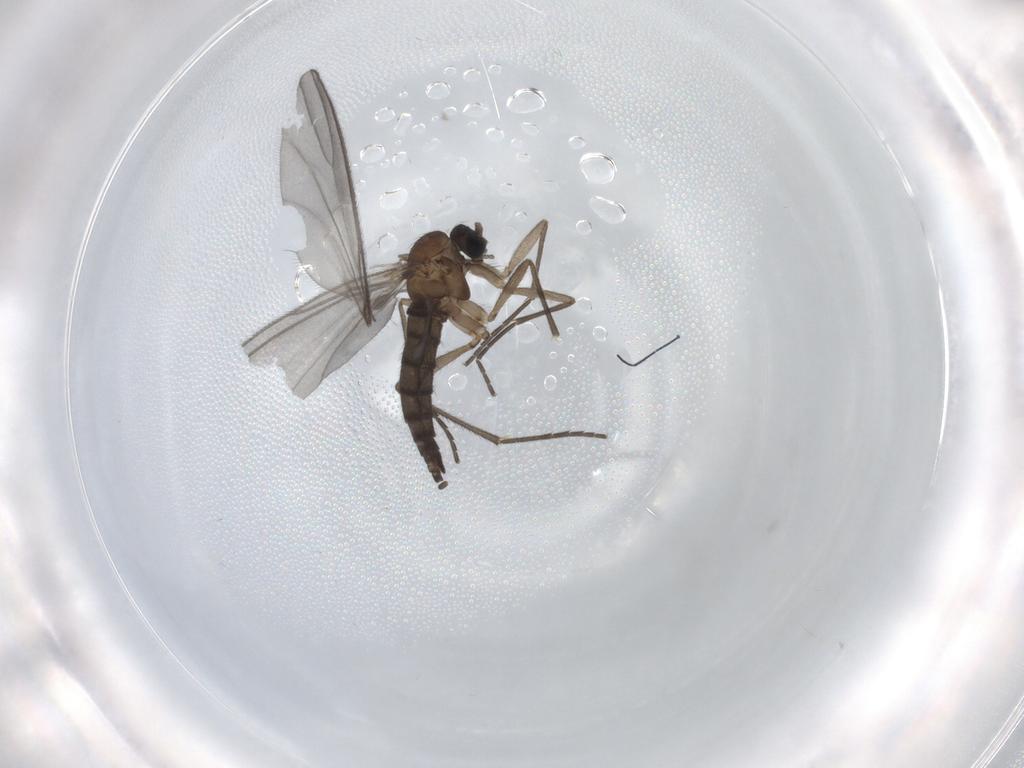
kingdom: Animalia
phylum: Arthropoda
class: Insecta
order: Diptera
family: Sciaridae
